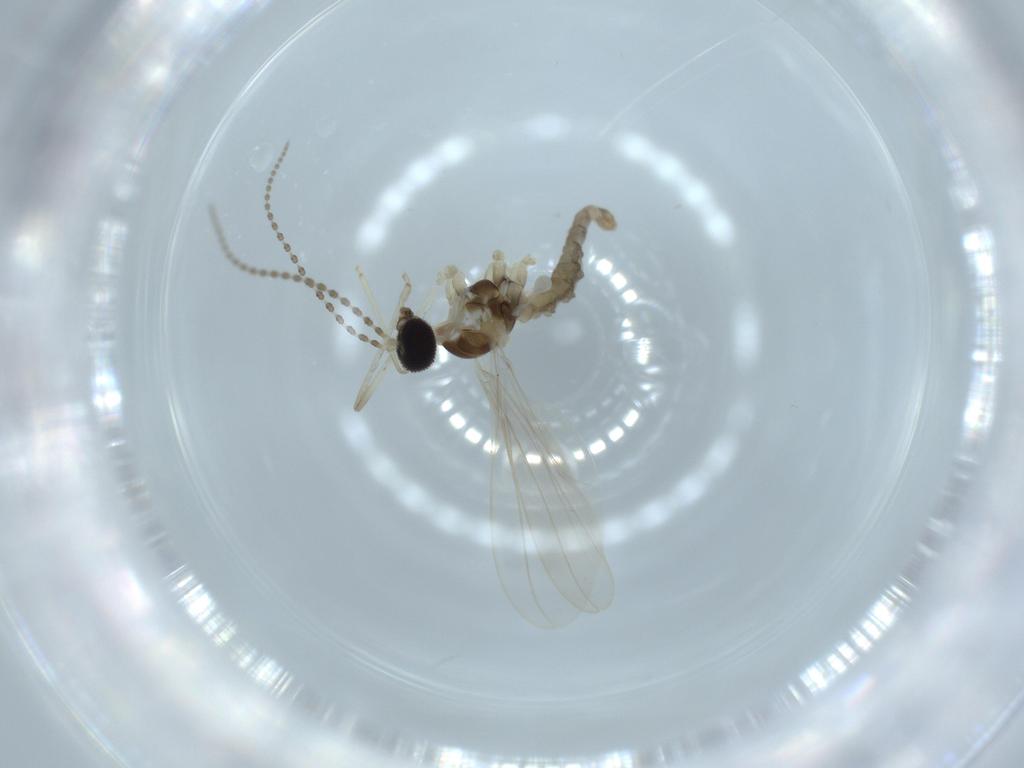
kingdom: Animalia
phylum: Arthropoda
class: Insecta
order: Diptera
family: Cecidomyiidae
